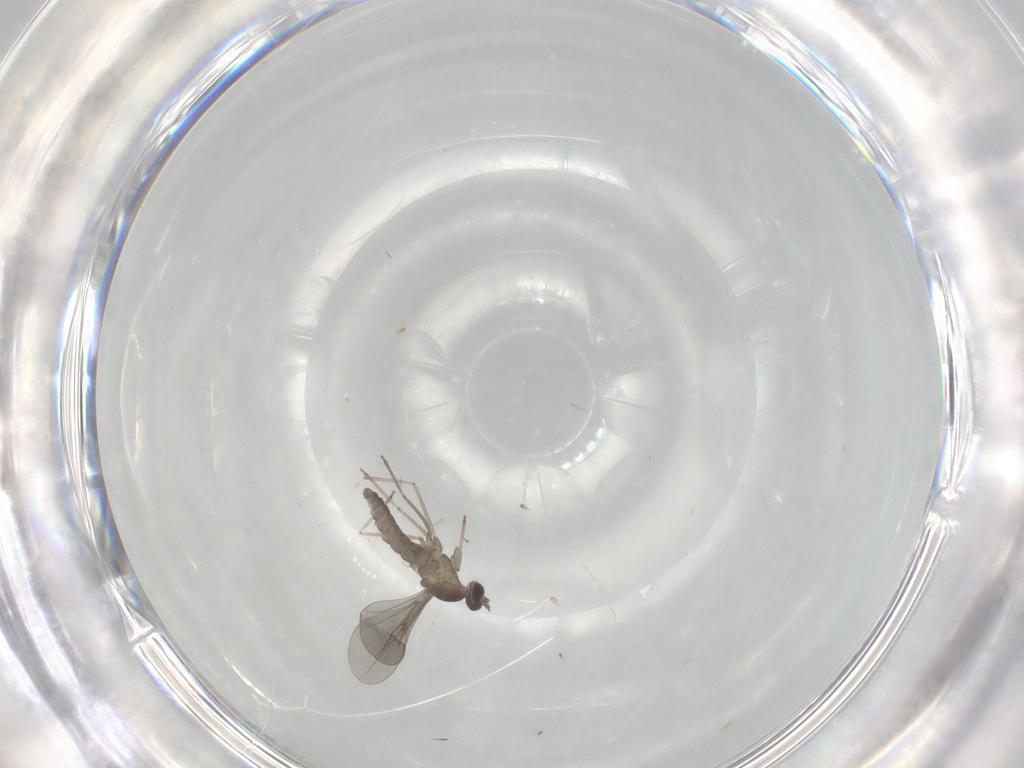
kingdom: Animalia
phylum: Arthropoda
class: Insecta
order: Diptera
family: Cecidomyiidae
